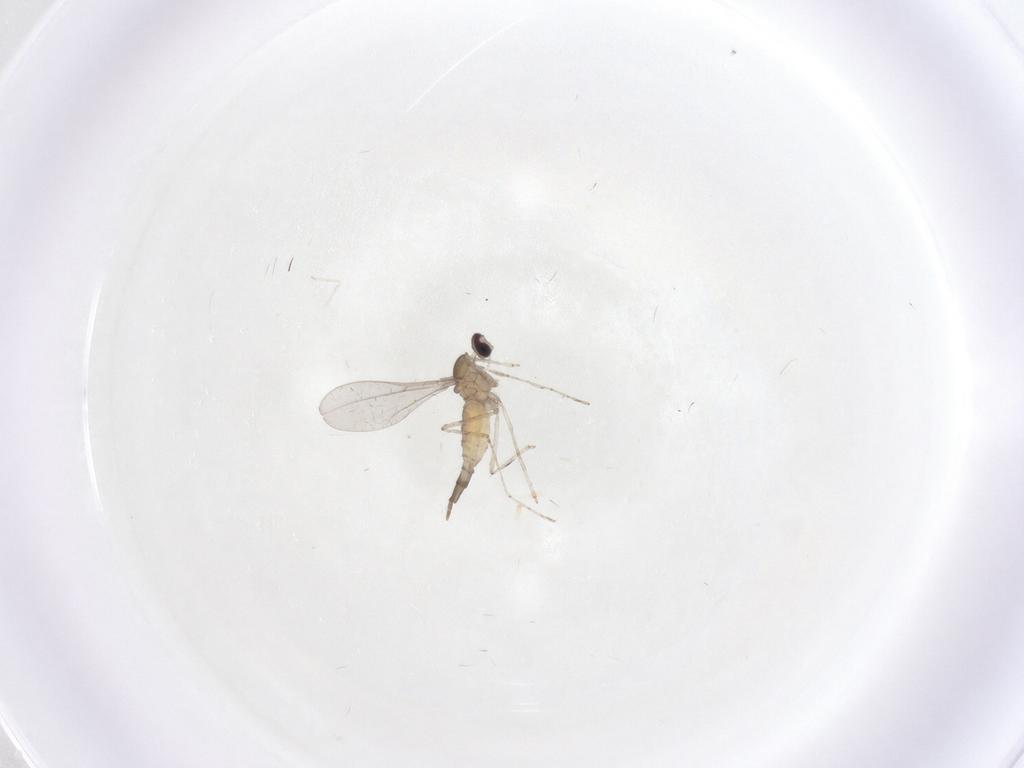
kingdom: Animalia
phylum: Arthropoda
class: Insecta
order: Diptera
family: Cecidomyiidae
